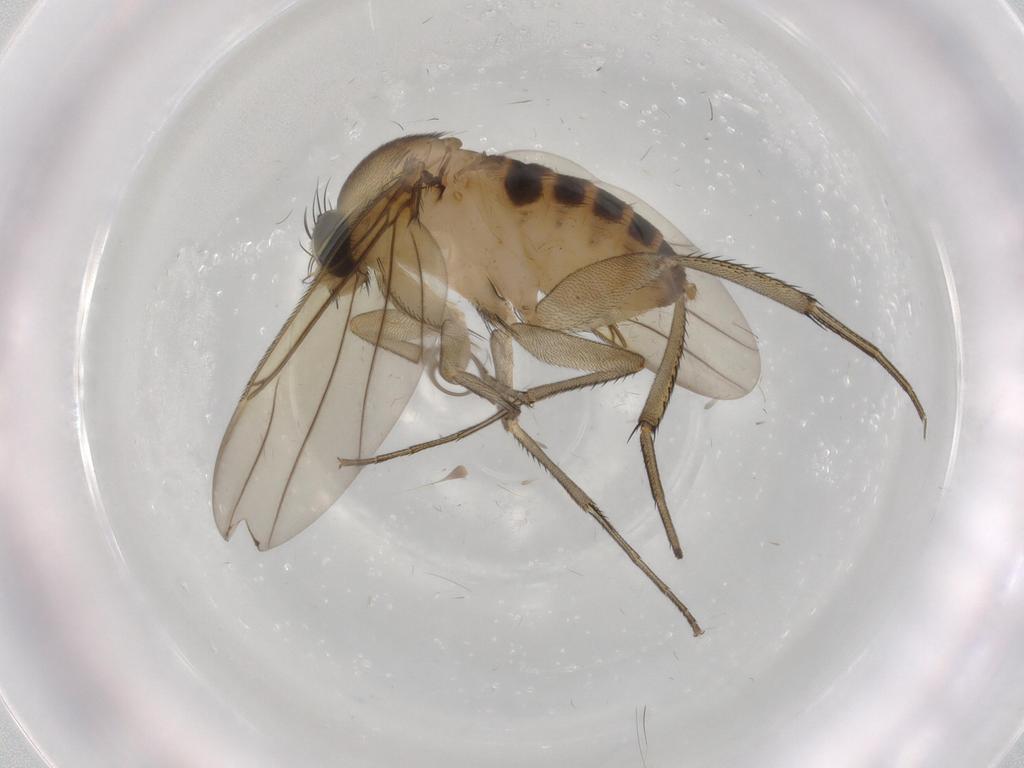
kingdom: Animalia
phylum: Arthropoda
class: Insecta
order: Diptera
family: Phoridae
